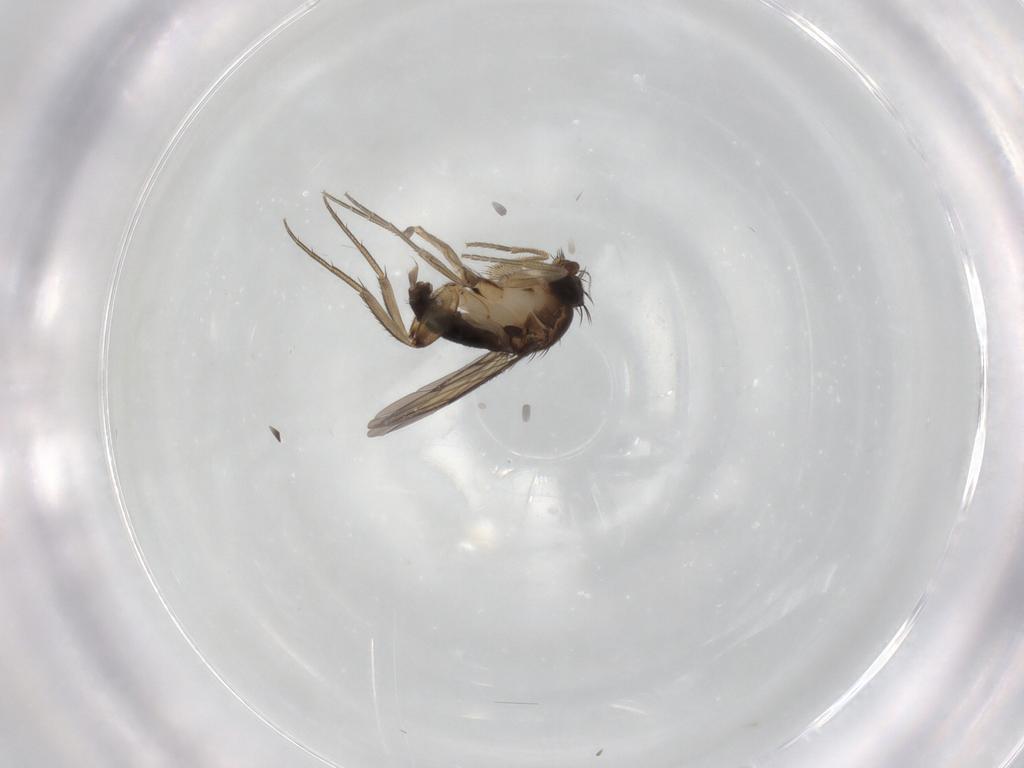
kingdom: Animalia
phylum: Arthropoda
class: Insecta
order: Diptera
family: Phoridae
